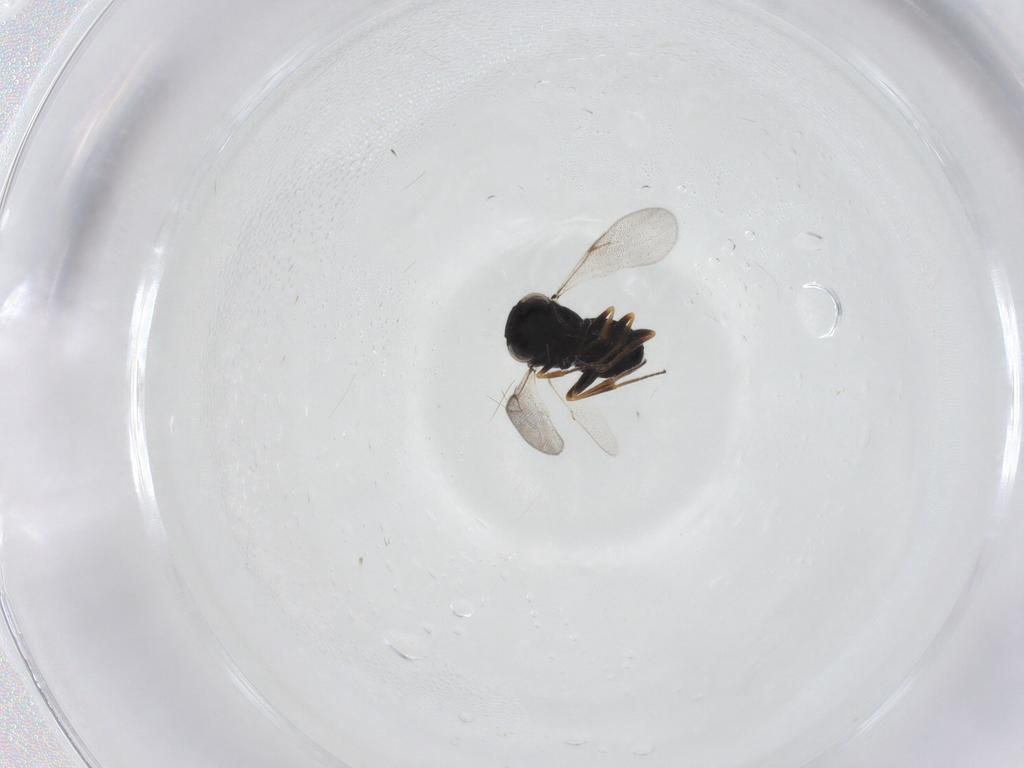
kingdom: Animalia
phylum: Arthropoda
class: Insecta
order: Hymenoptera
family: Scelionidae
